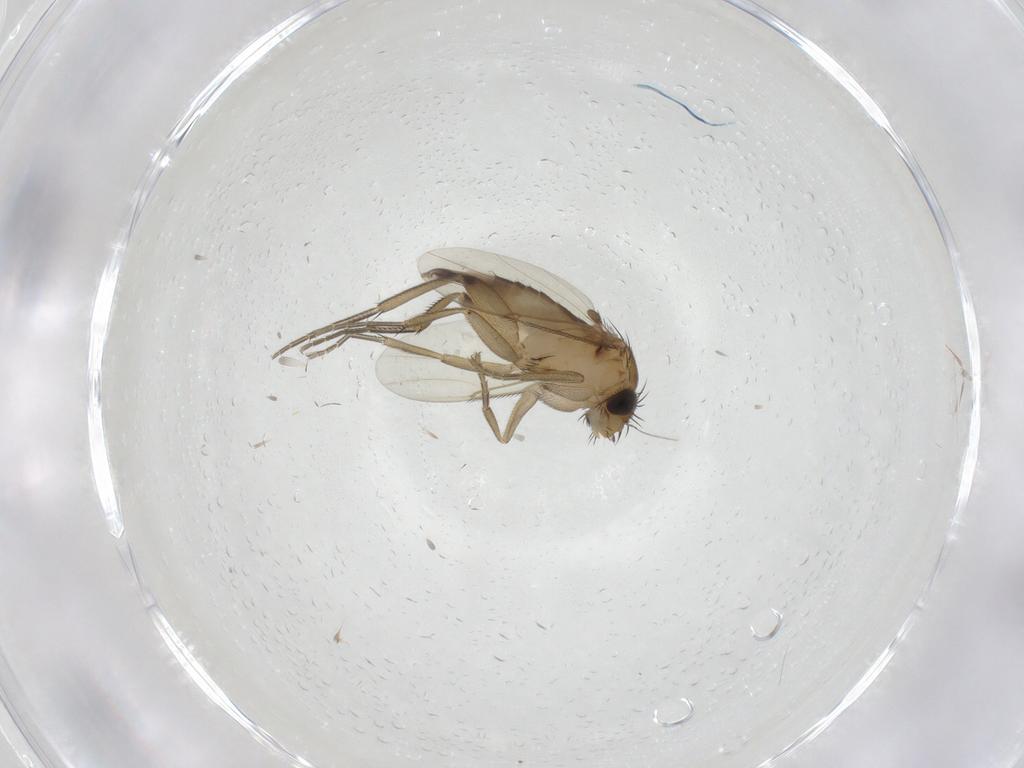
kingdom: Animalia
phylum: Arthropoda
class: Insecta
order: Diptera
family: Phoridae
